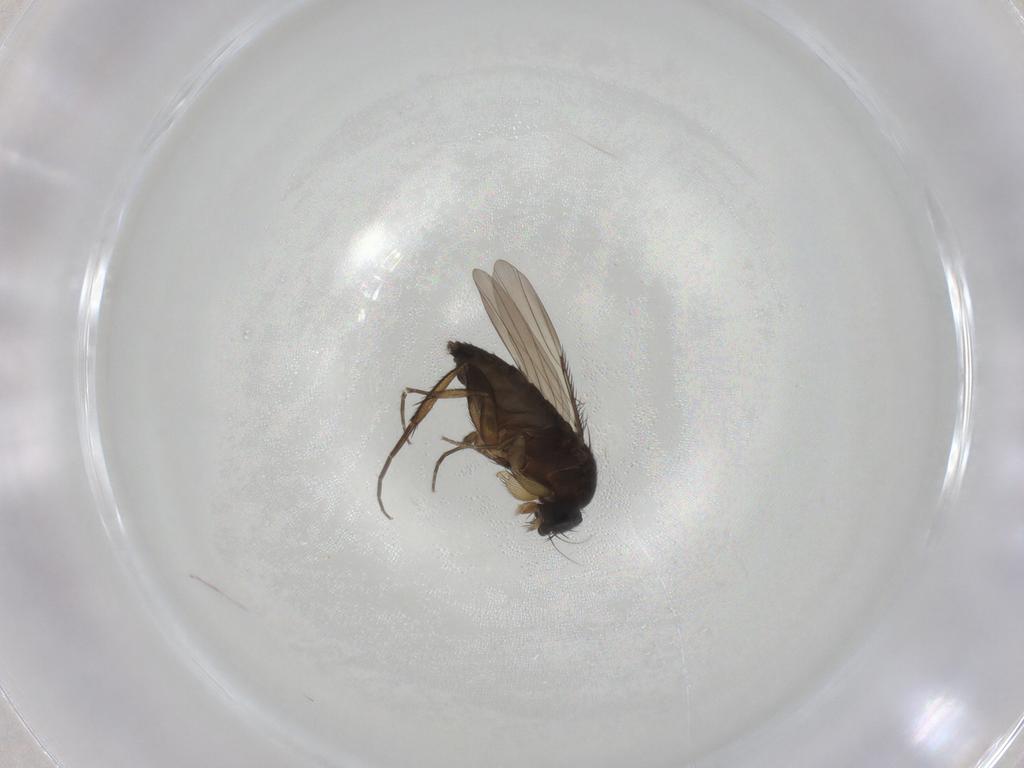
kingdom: Animalia
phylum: Arthropoda
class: Insecta
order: Diptera
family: Phoridae
